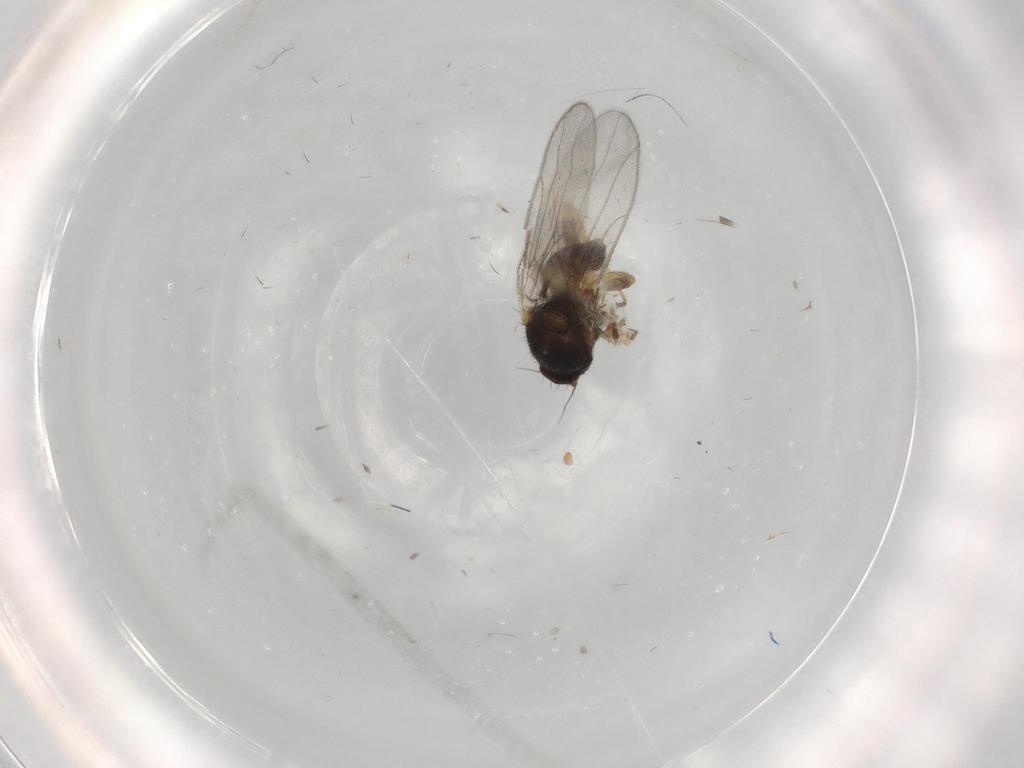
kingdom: Animalia
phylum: Arthropoda
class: Insecta
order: Diptera
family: Chloropidae
